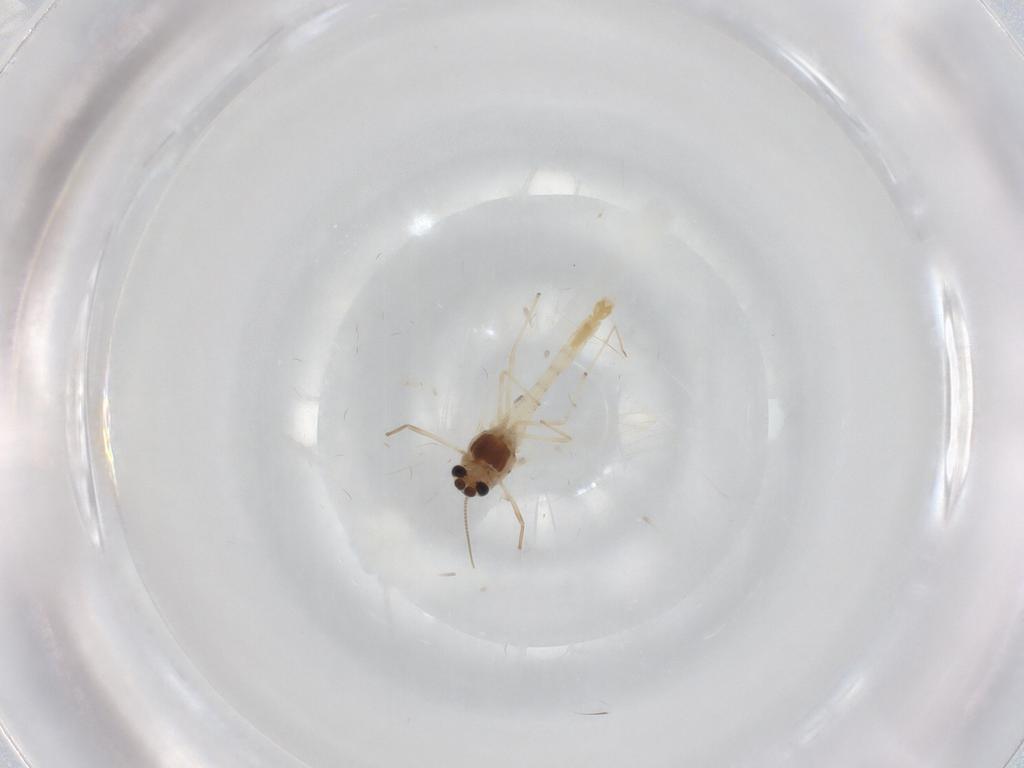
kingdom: Animalia
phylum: Arthropoda
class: Insecta
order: Diptera
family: Chironomidae
